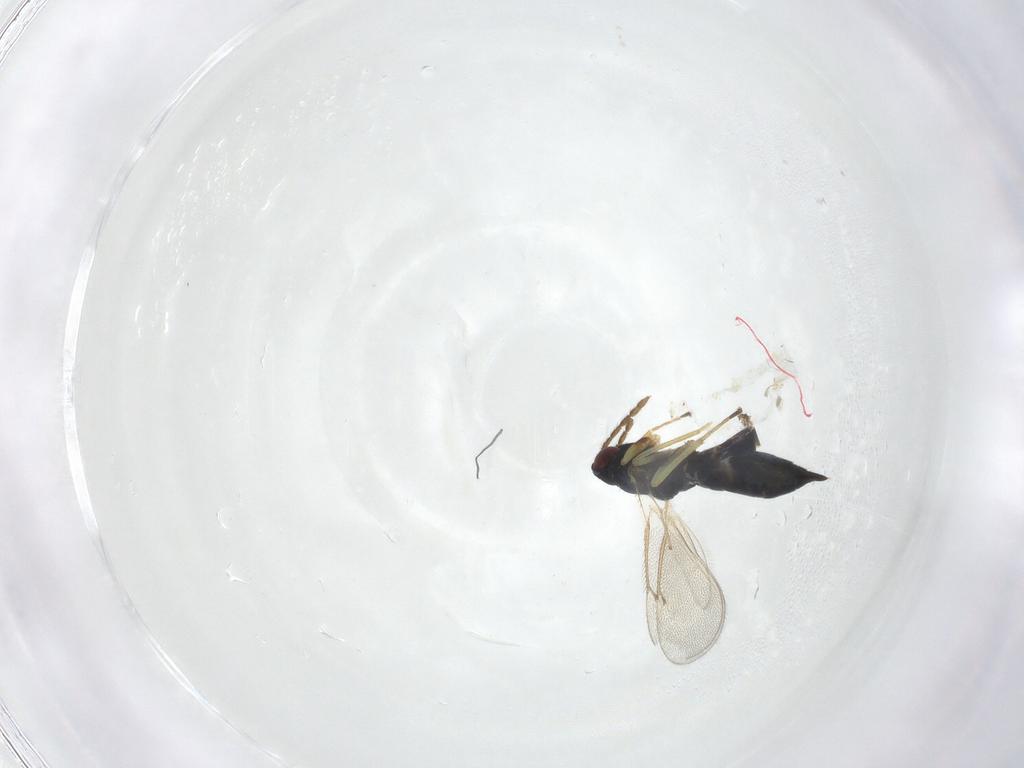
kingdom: Animalia
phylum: Arthropoda
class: Insecta
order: Hymenoptera
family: Eulophidae
